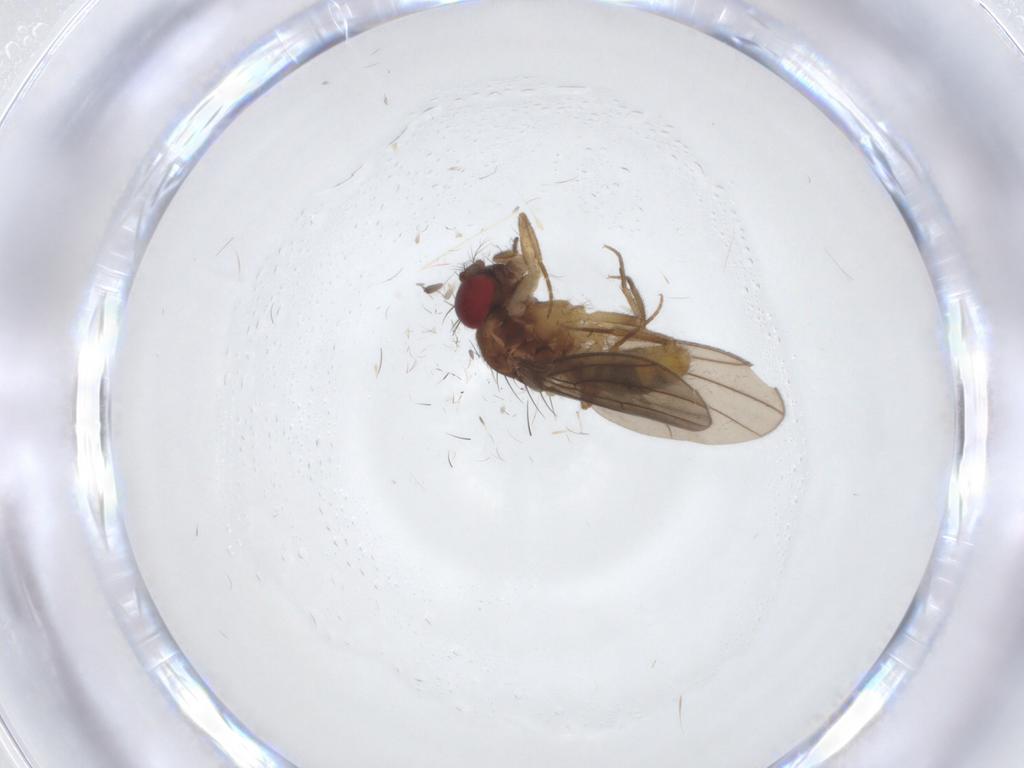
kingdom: Animalia
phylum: Arthropoda
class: Insecta
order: Diptera
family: Drosophilidae
